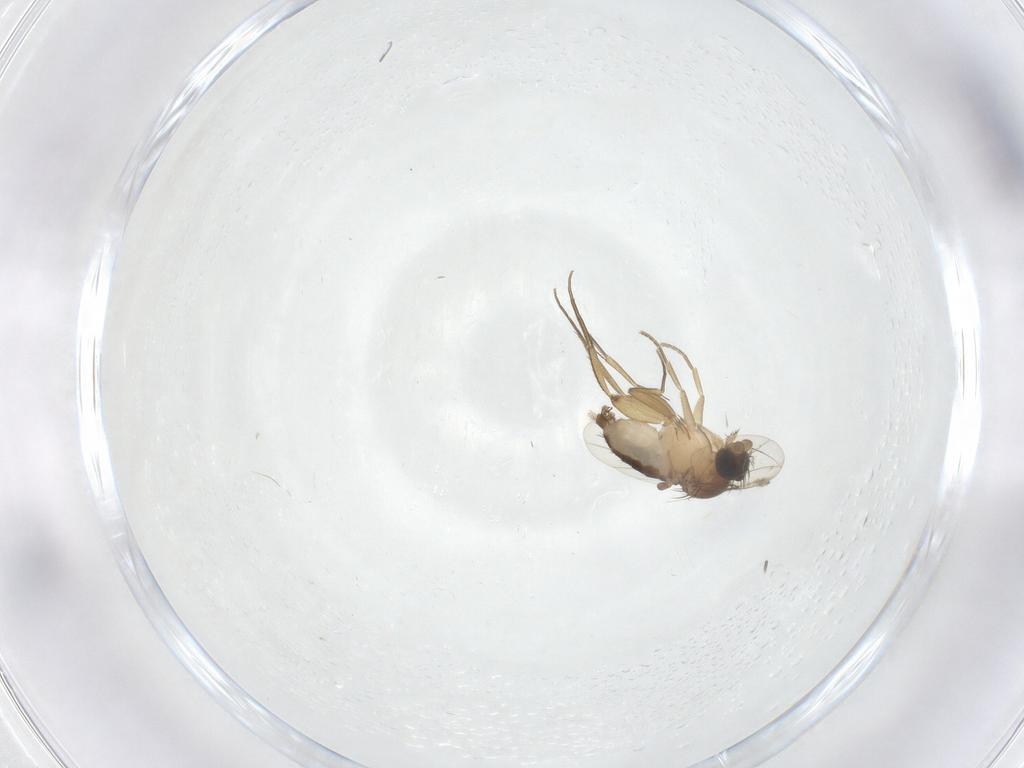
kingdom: Animalia
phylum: Arthropoda
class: Insecta
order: Diptera
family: Phoridae
